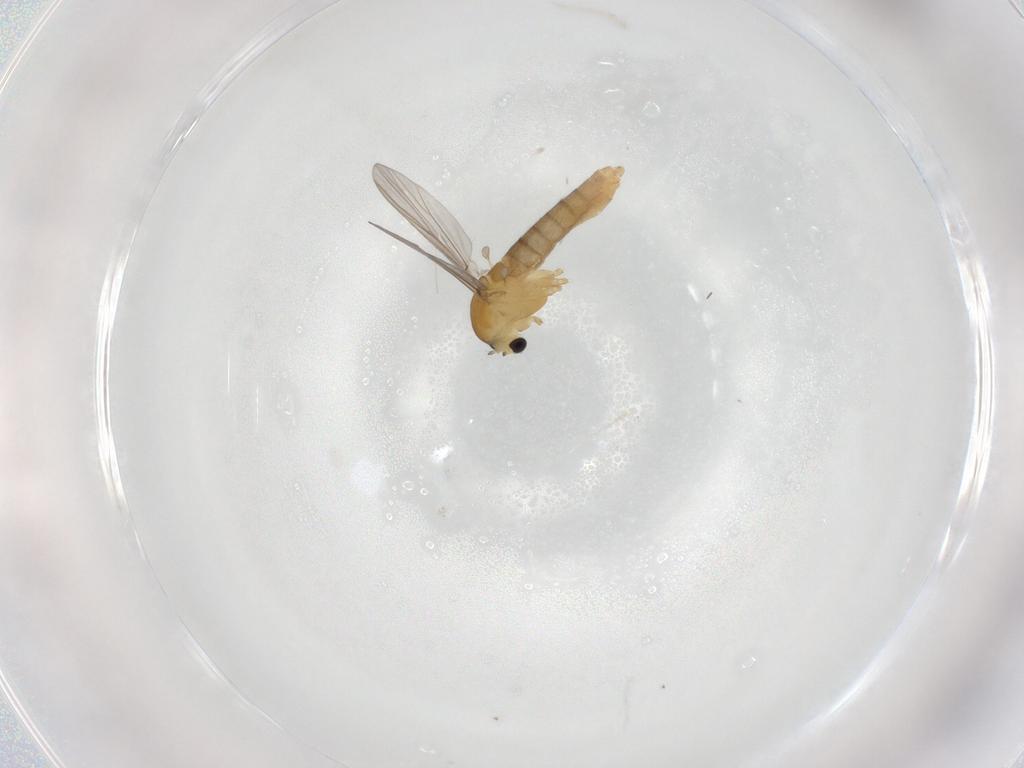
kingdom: Animalia
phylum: Arthropoda
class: Insecta
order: Diptera
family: Chironomidae
